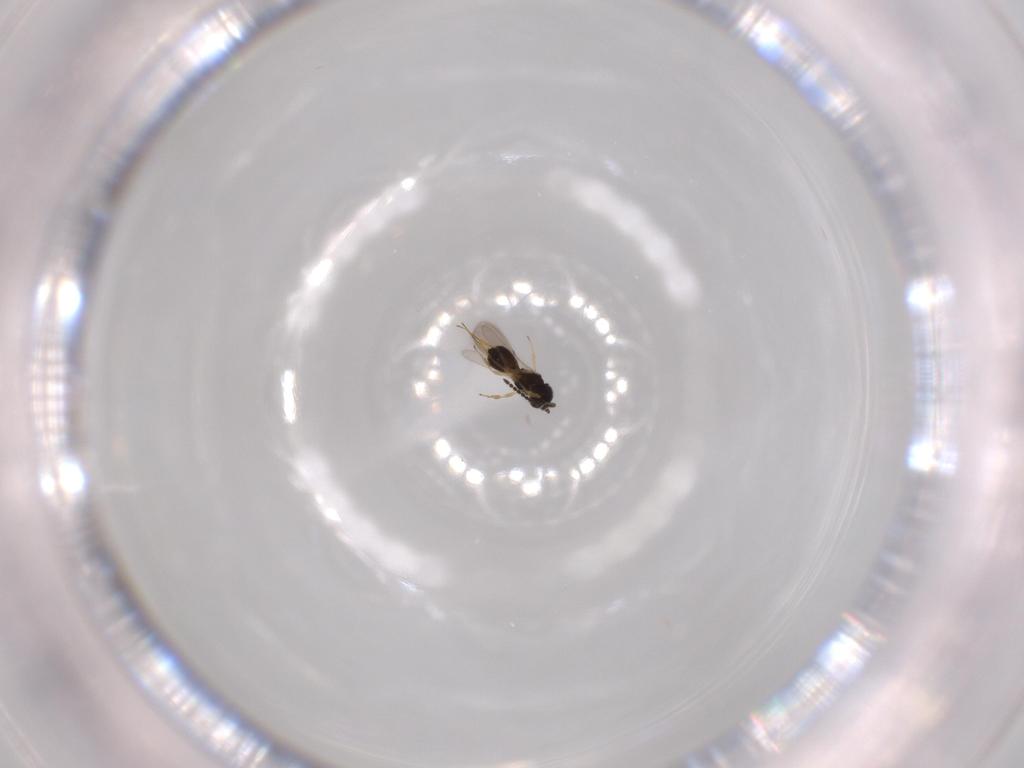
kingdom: Animalia
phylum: Arthropoda
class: Insecta
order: Hymenoptera
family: Scelionidae
